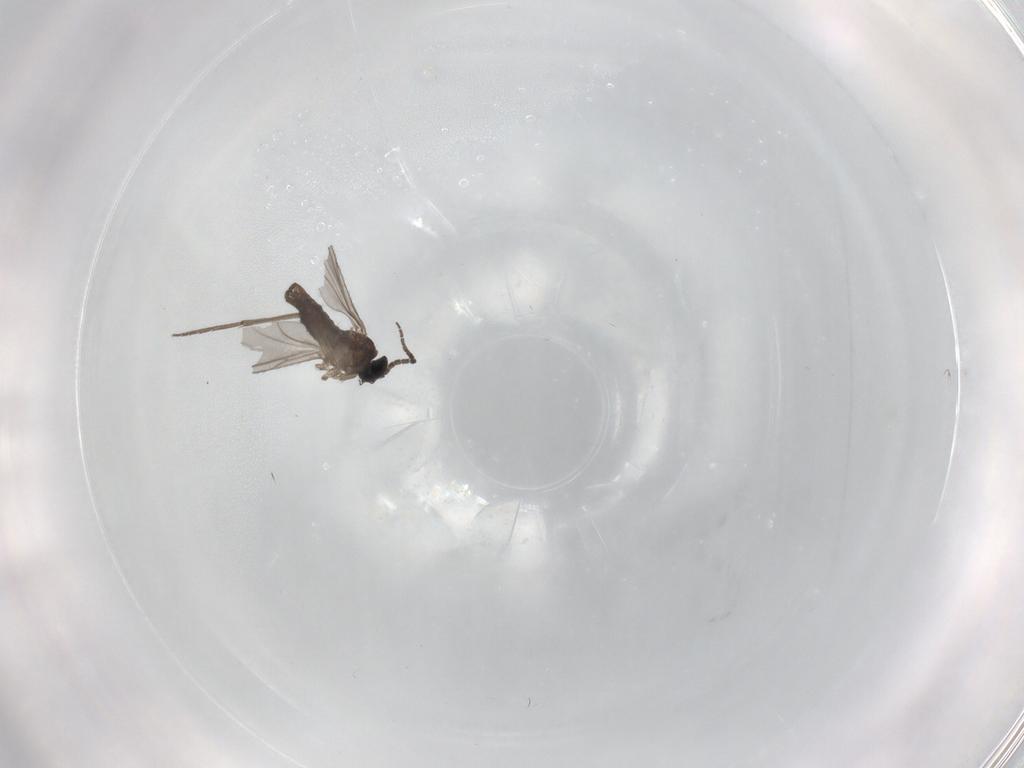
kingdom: Animalia
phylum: Arthropoda
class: Insecta
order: Diptera
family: Sciaridae
